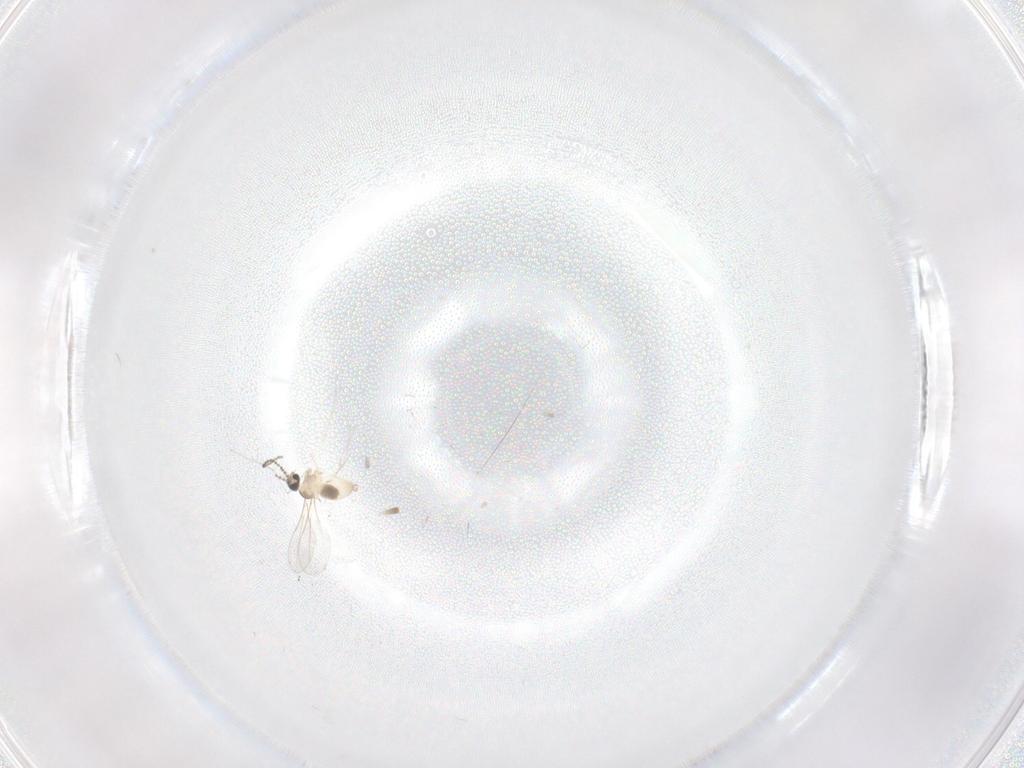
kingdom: Animalia
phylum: Arthropoda
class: Insecta
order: Diptera
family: Cecidomyiidae
